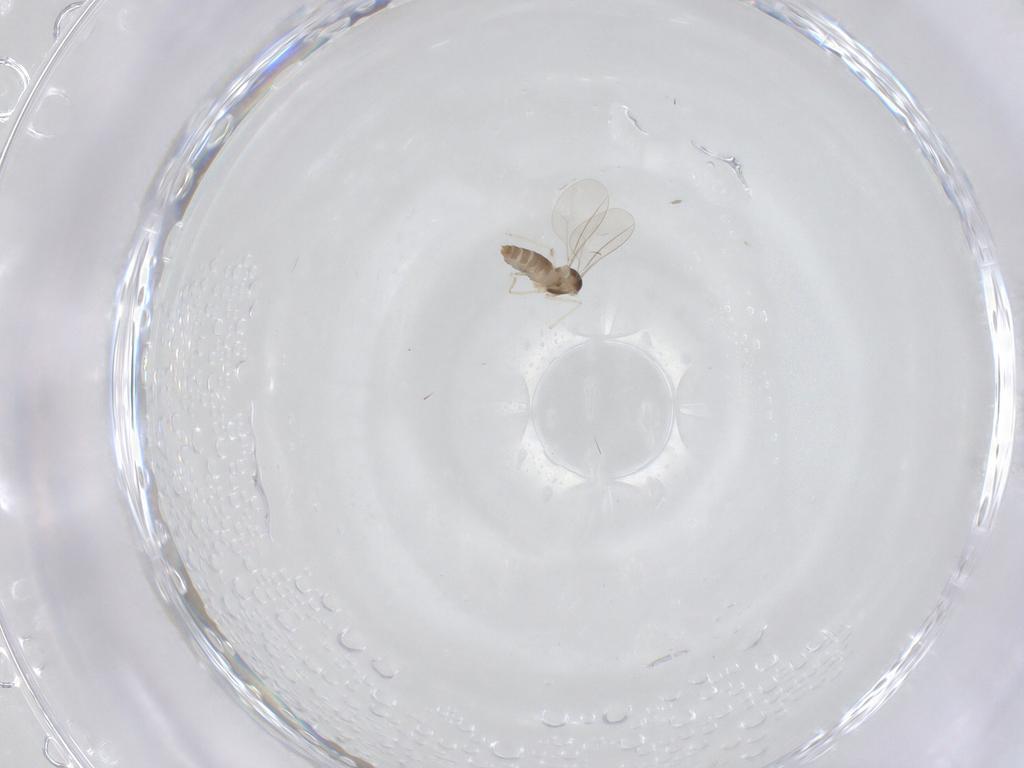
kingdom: Animalia
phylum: Arthropoda
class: Insecta
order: Diptera
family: Cecidomyiidae
